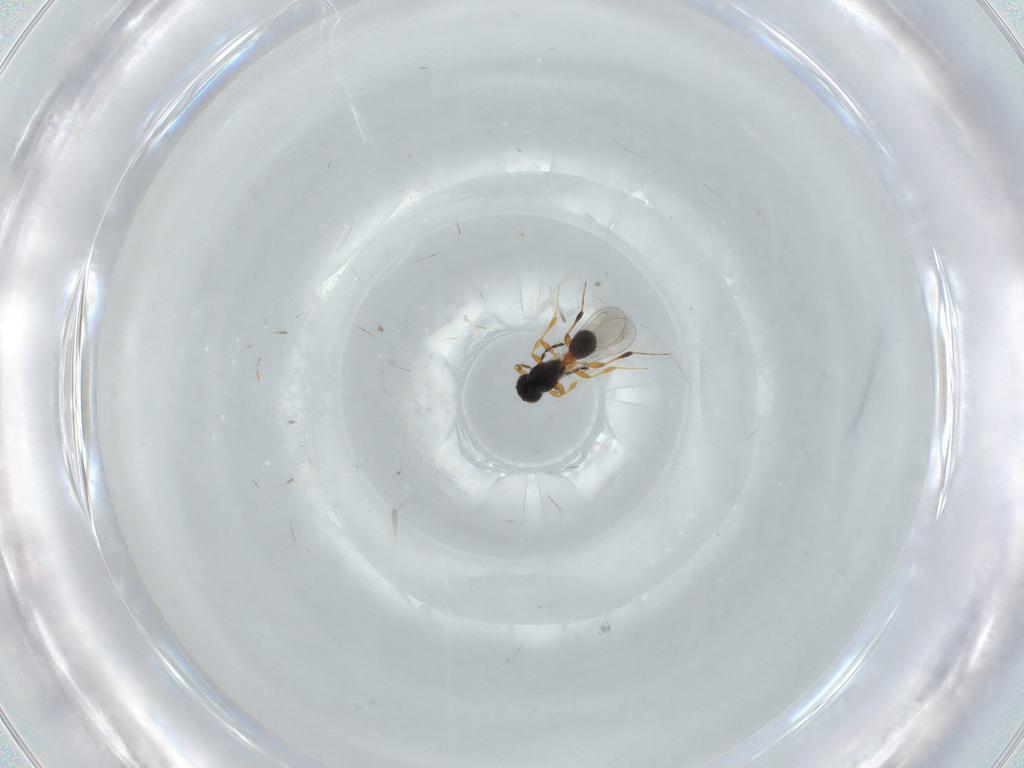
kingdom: Animalia
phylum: Arthropoda
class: Insecta
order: Hymenoptera
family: Platygastridae
